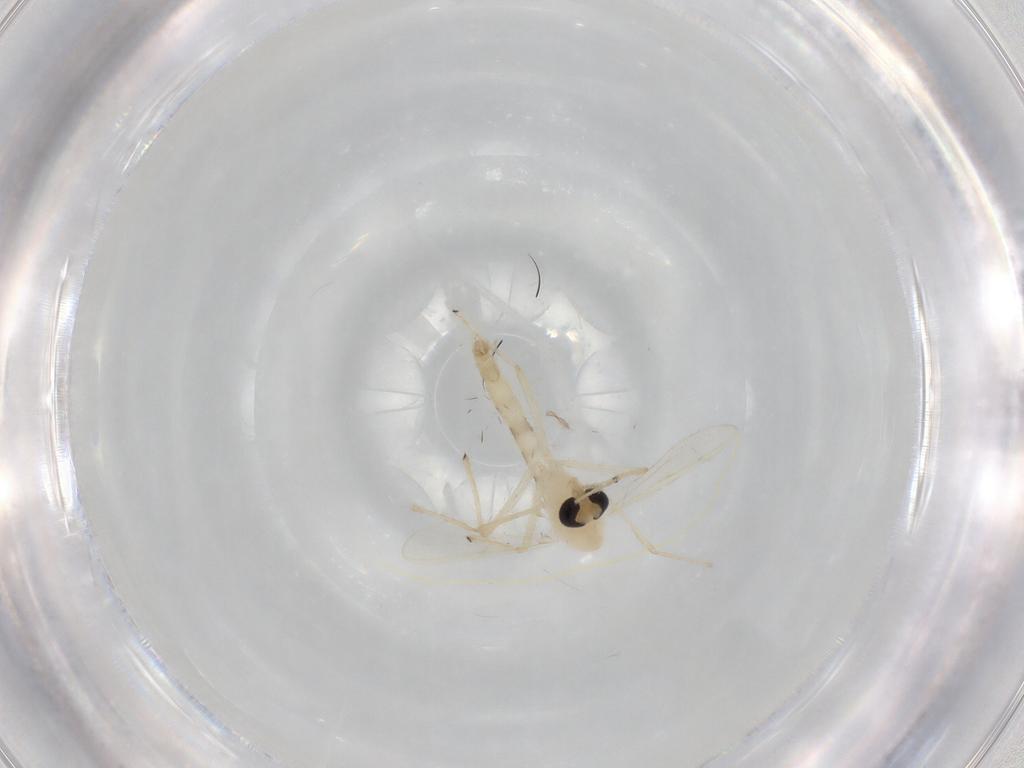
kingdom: Animalia
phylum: Arthropoda
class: Insecta
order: Diptera
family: Chironomidae
